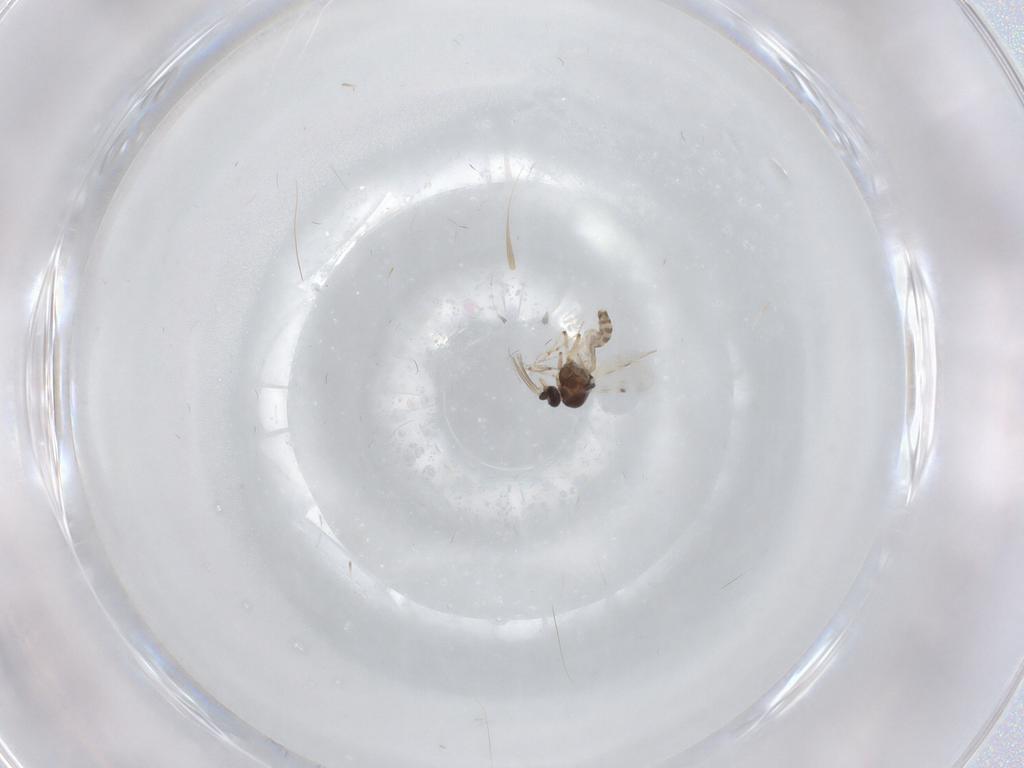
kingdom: Animalia
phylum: Arthropoda
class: Insecta
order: Diptera
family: Cecidomyiidae
